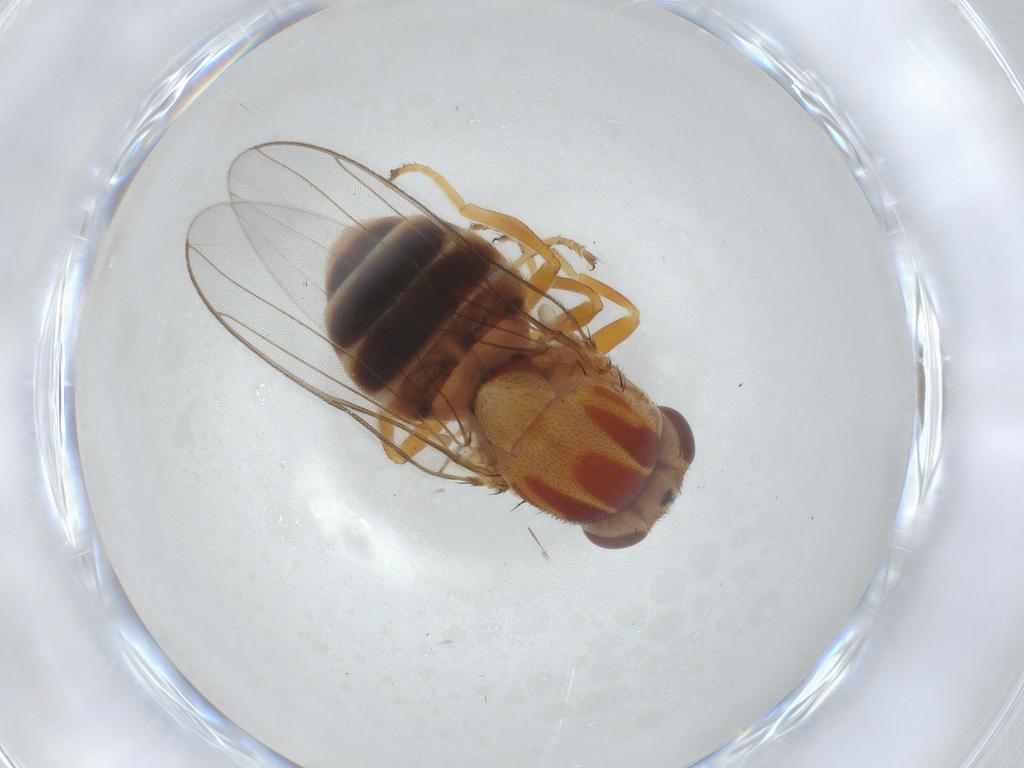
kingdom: Animalia
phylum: Arthropoda
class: Insecta
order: Diptera
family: Chloropidae
